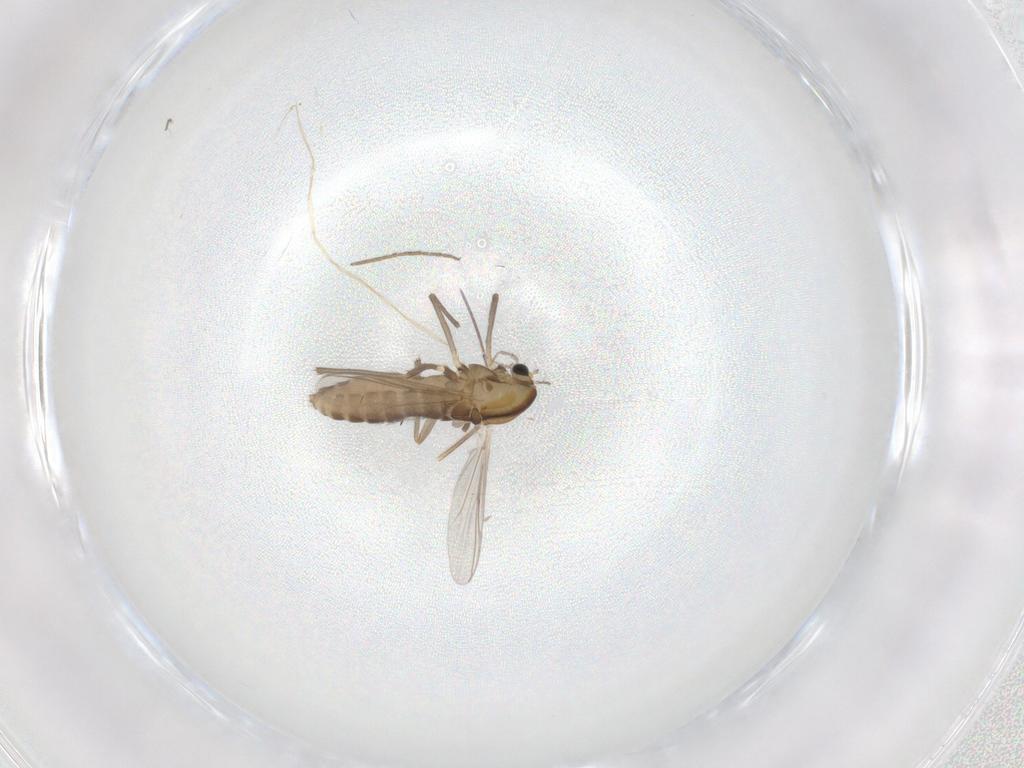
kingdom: Animalia
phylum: Arthropoda
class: Insecta
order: Diptera
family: Chironomidae
